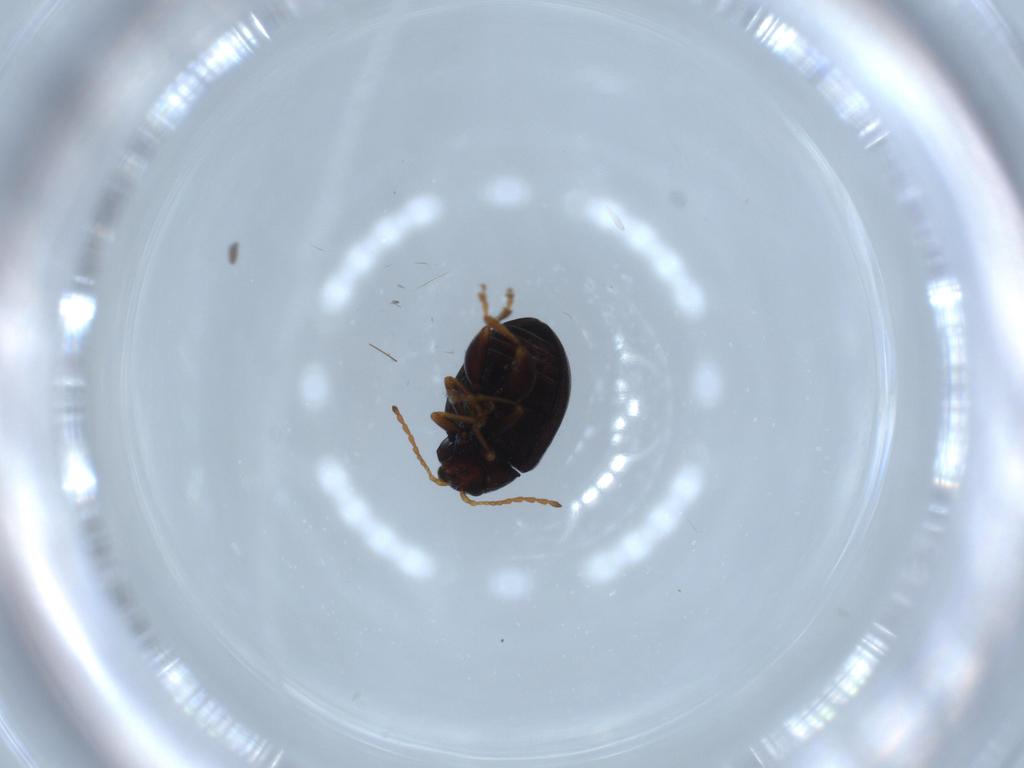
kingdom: Animalia
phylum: Arthropoda
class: Insecta
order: Coleoptera
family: Chrysomelidae
